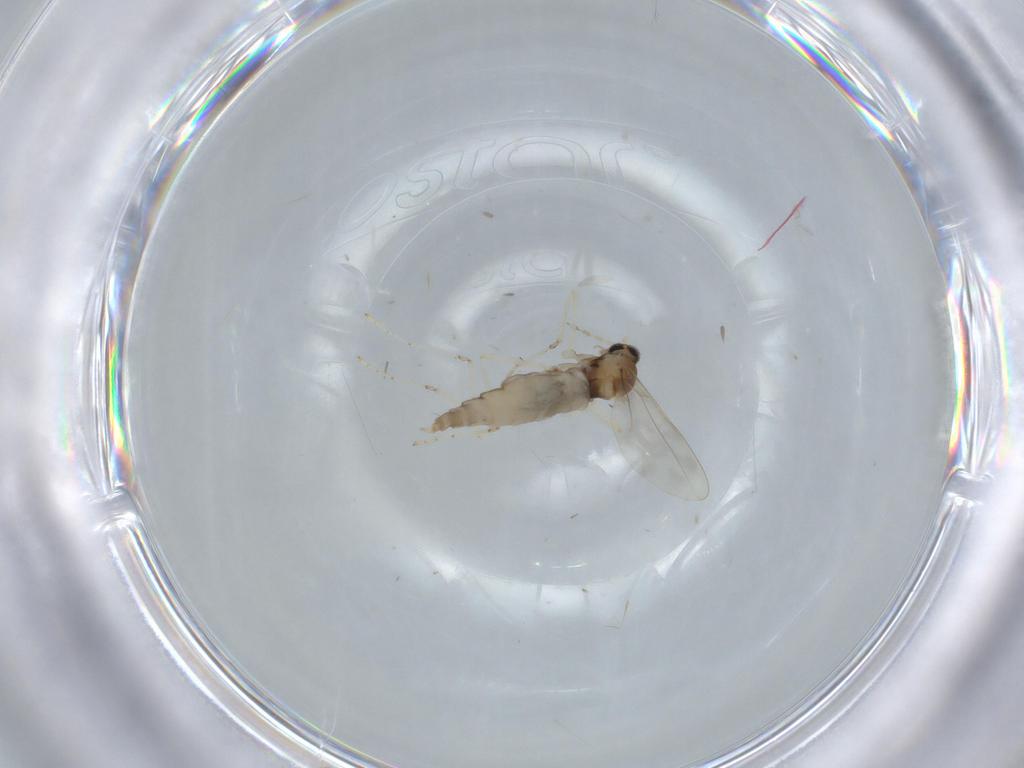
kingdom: Animalia
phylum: Arthropoda
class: Insecta
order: Diptera
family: Cecidomyiidae
